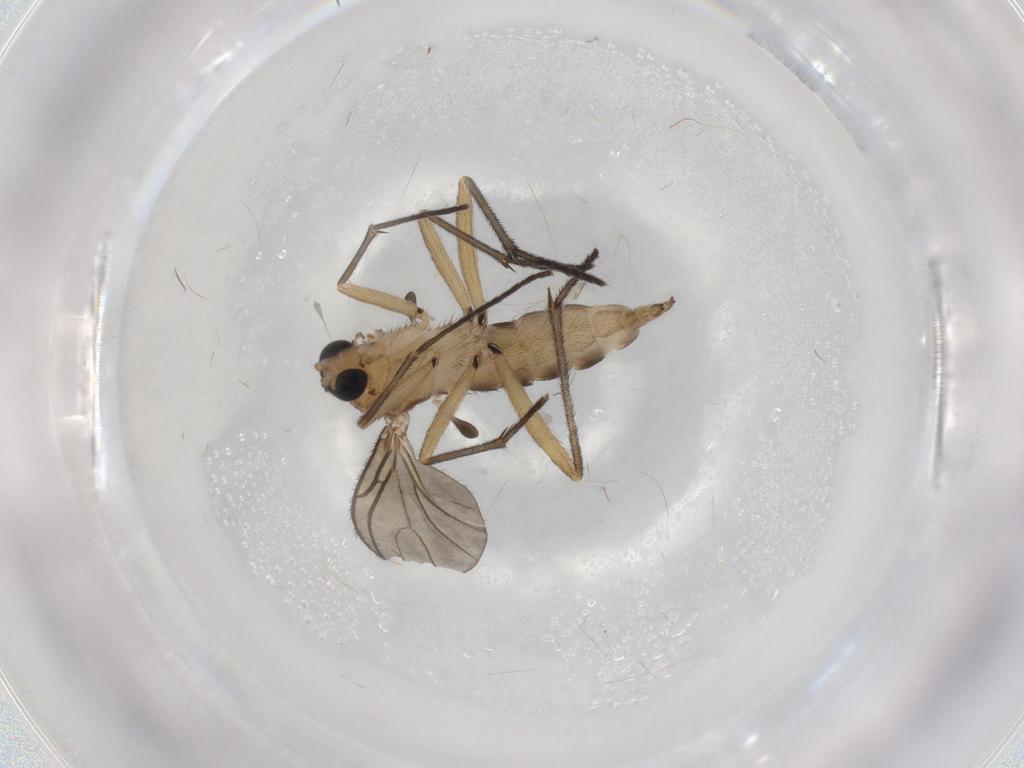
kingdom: Animalia
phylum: Arthropoda
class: Insecta
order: Diptera
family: Sciaridae
